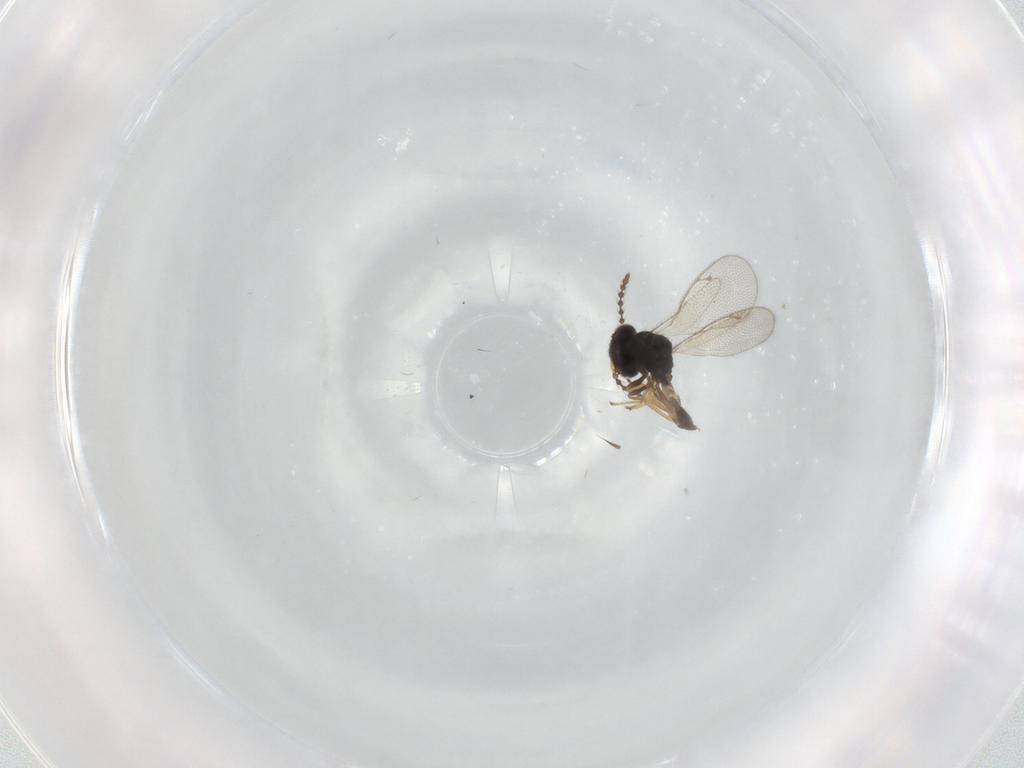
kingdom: Animalia
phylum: Arthropoda
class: Insecta
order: Hymenoptera
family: Pteromalidae
